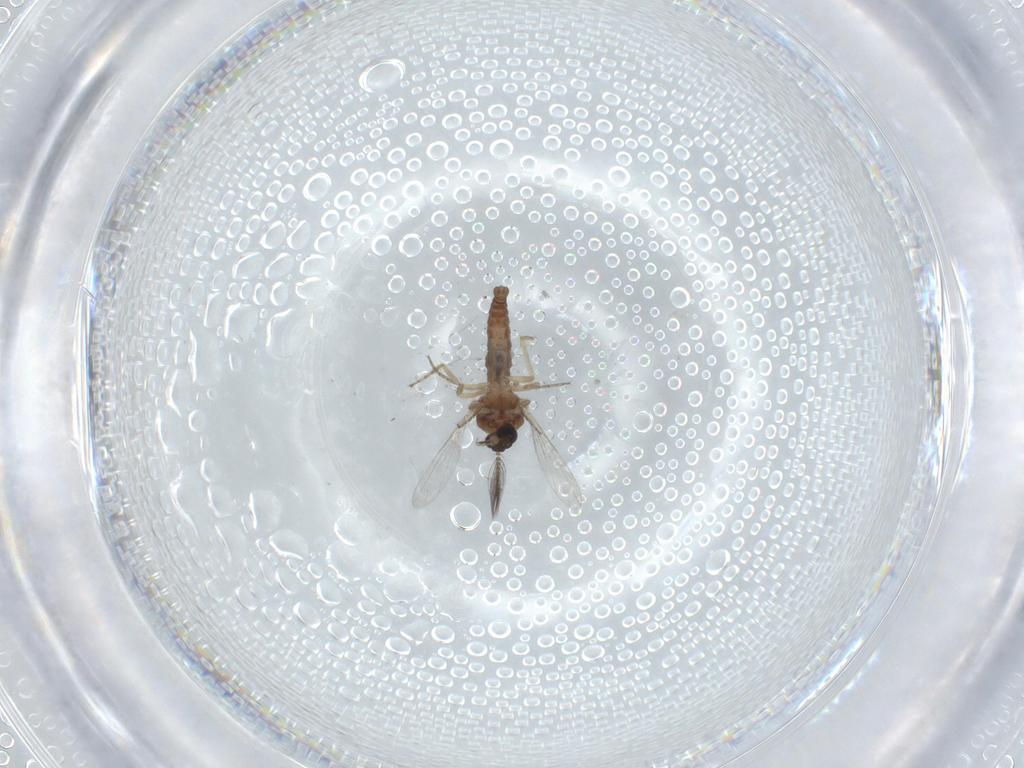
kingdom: Animalia
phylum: Arthropoda
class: Insecta
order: Diptera
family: Ceratopogonidae
